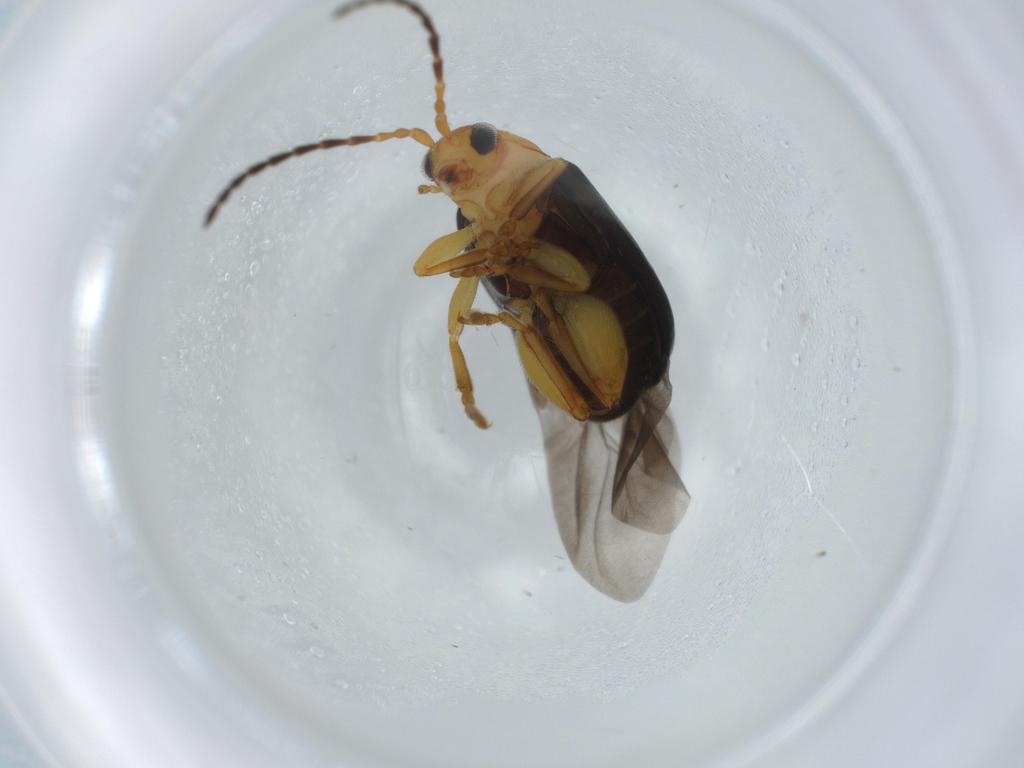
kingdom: Animalia
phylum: Arthropoda
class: Insecta
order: Coleoptera
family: Chrysomelidae
